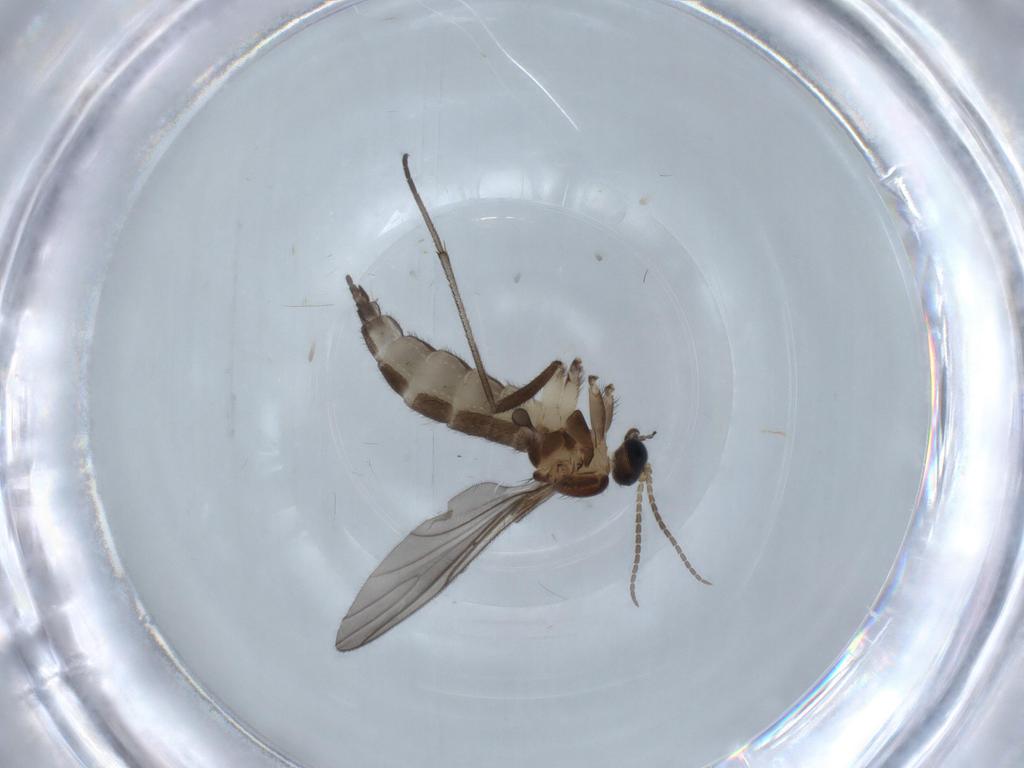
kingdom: Animalia
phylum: Arthropoda
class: Insecta
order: Diptera
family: Sciaridae
